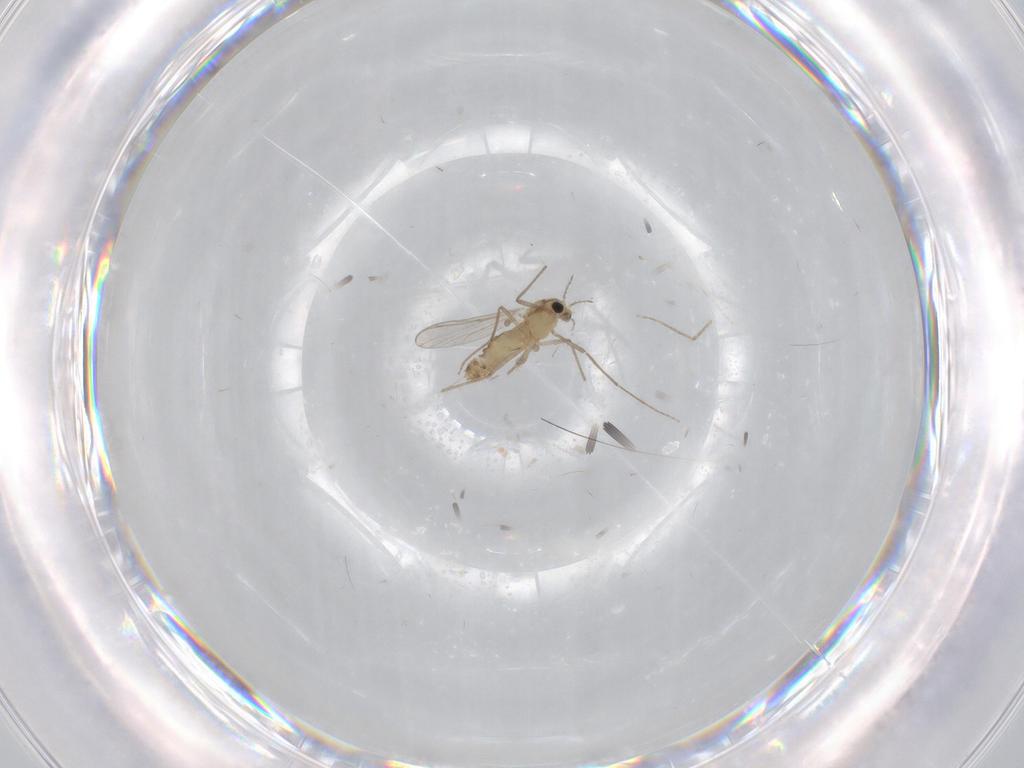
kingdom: Animalia
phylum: Arthropoda
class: Insecta
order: Diptera
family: Chironomidae
